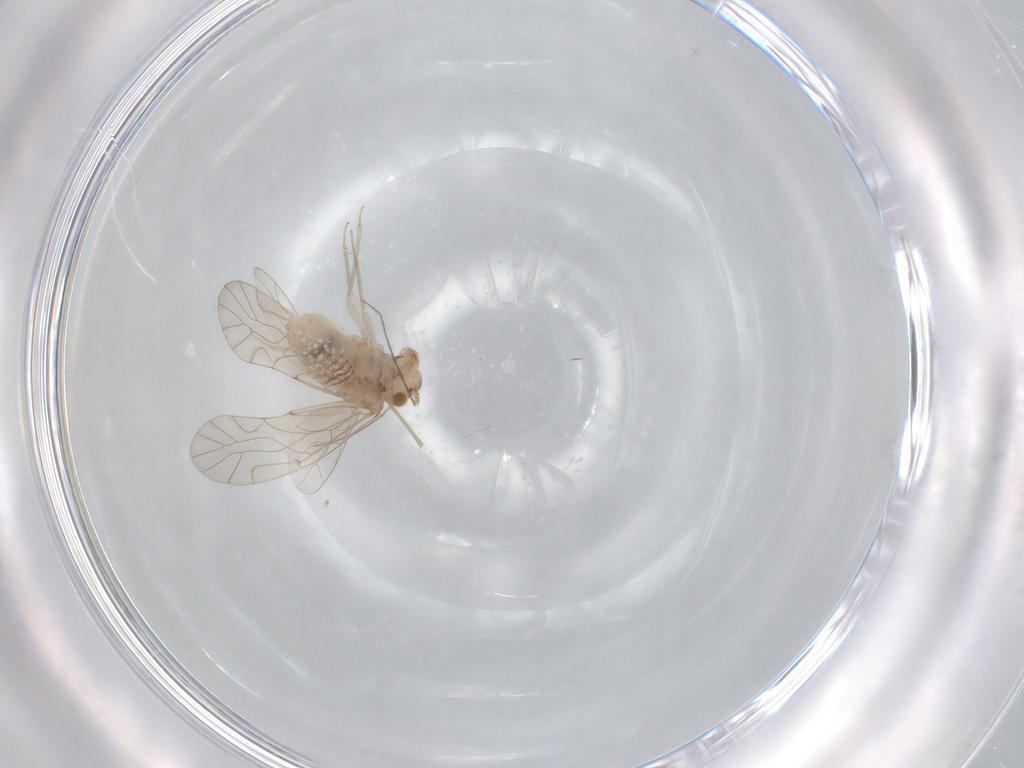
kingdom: Animalia
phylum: Arthropoda
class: Insecta
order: Psocodea
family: Lachesillidae
